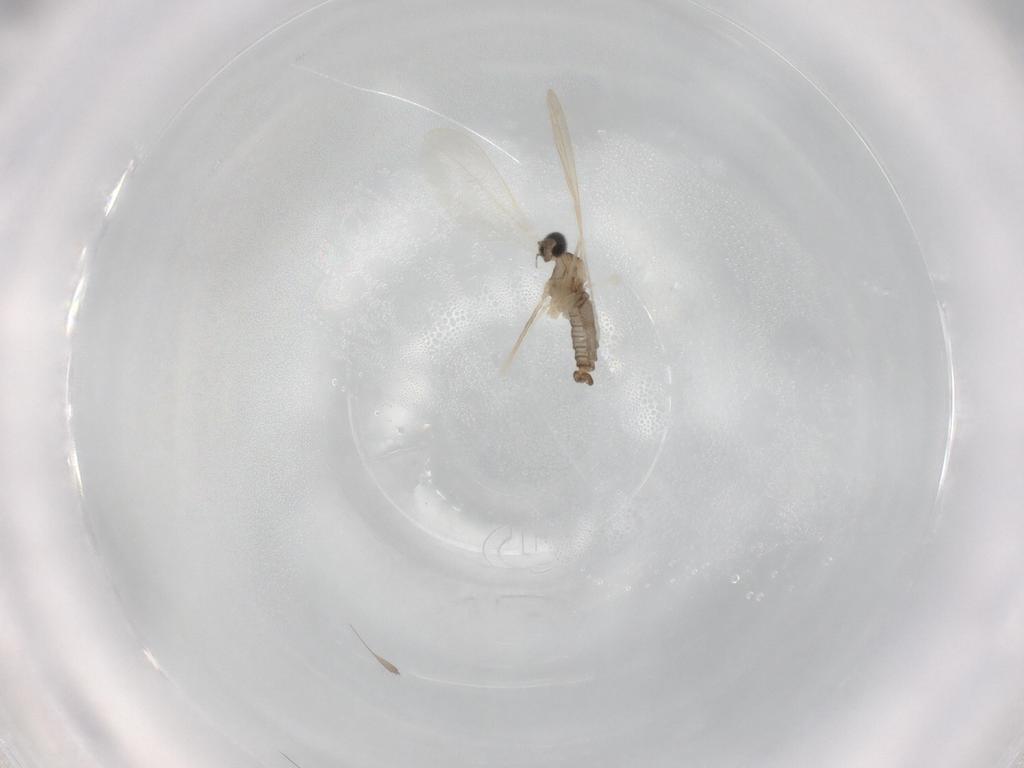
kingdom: Animalia
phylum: Arthropoda
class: Insecta
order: Diptera
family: Cecidomyiidae
